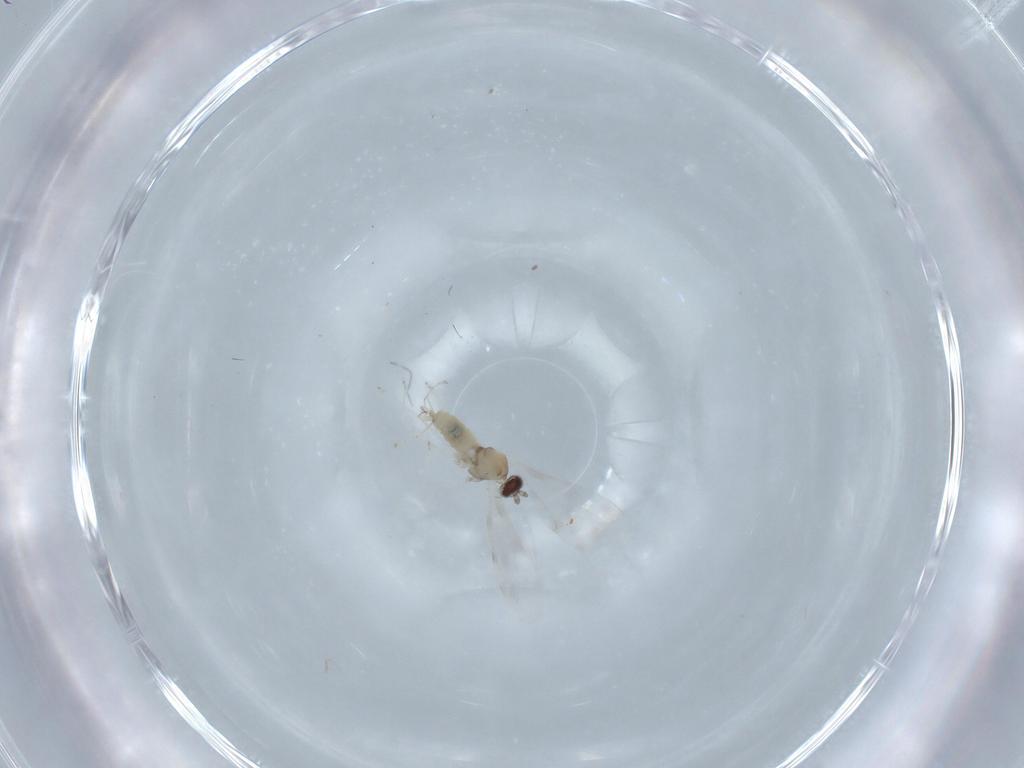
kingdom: Animalia
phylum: Arthropoda
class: Insecta
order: Diptera
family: Cecidomyiidae
